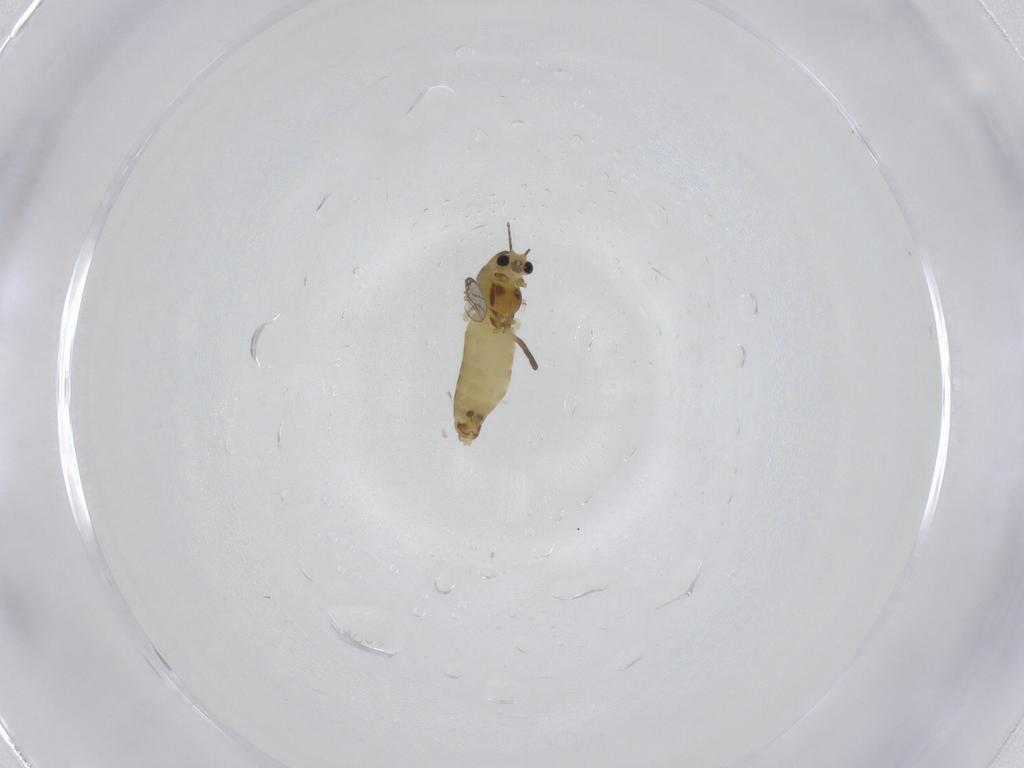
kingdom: Animalia
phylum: Arthropoda
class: Insecta
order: Diptera
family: Chironomidae
